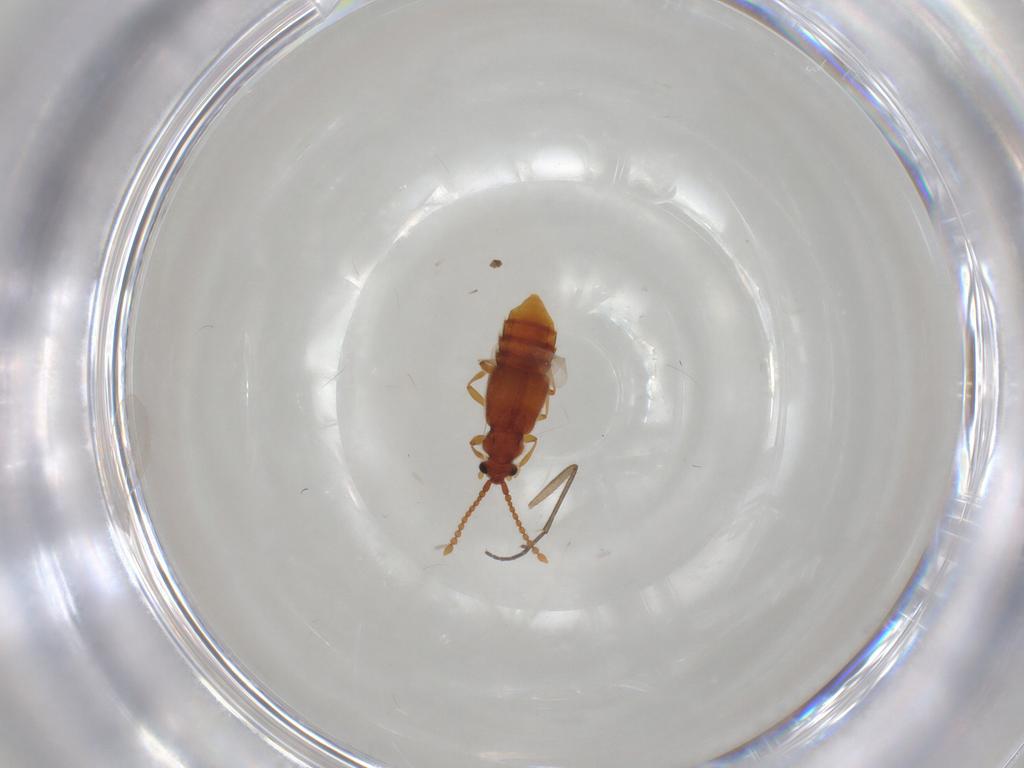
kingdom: Animalia
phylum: Arthropoda
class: Insecta
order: Coleoptera
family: Staphylinidae
